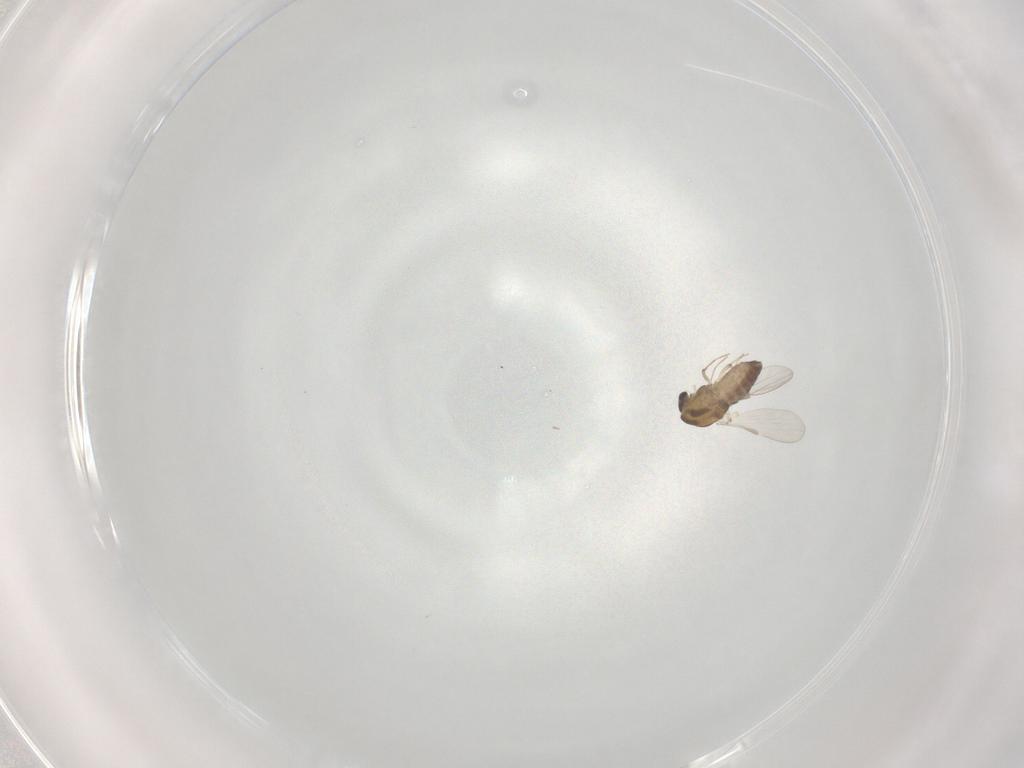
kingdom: Animalia
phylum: Arthropoda
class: Insecta
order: Diptera
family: Chironomidae
